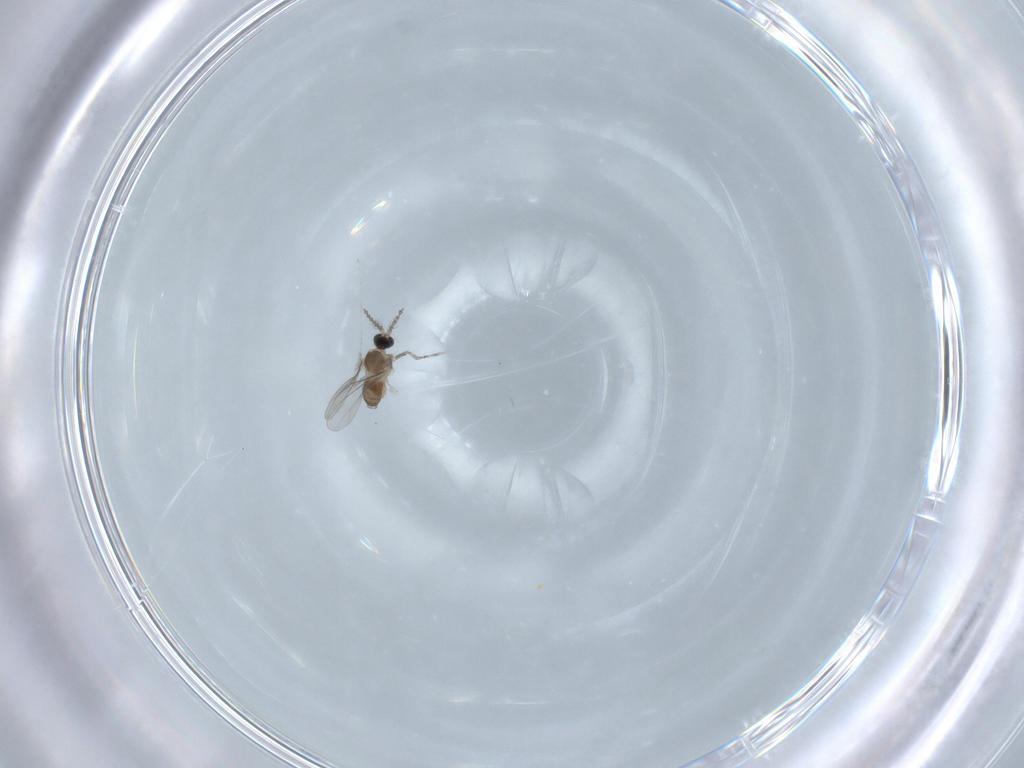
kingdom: Animalia
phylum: Arthropoda
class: Insecta
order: Diptera
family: Cecidomyiidae
